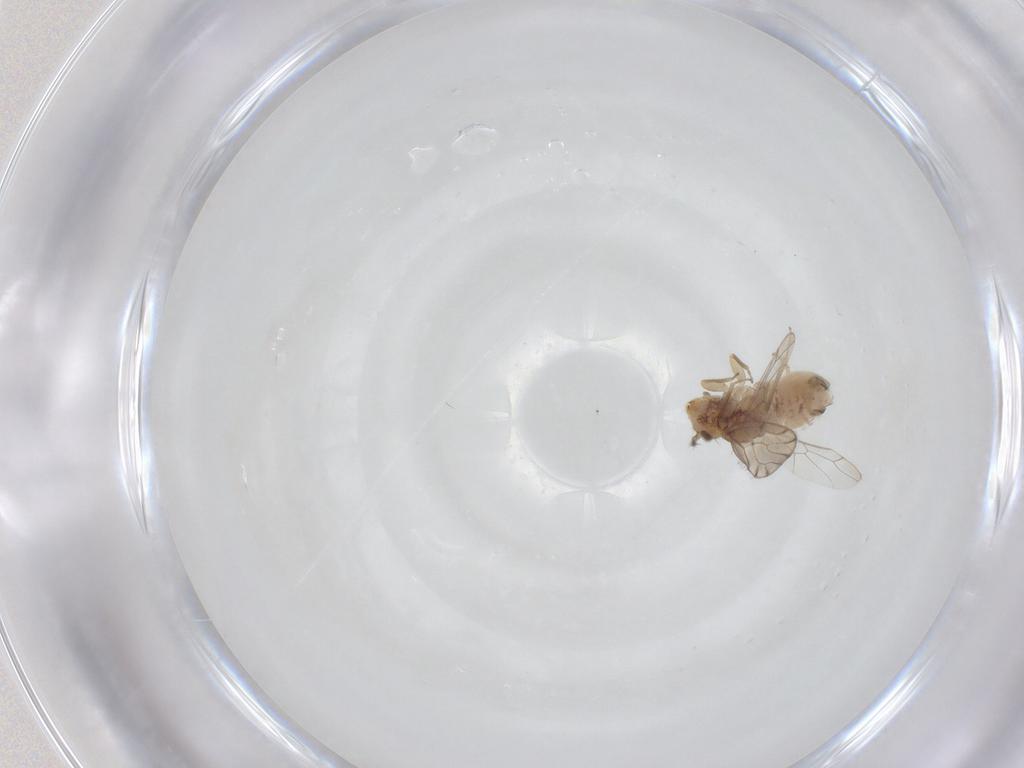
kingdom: Animalia
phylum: Arthropoda
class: Insecta
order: Psocodea
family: Ectopsocidae
